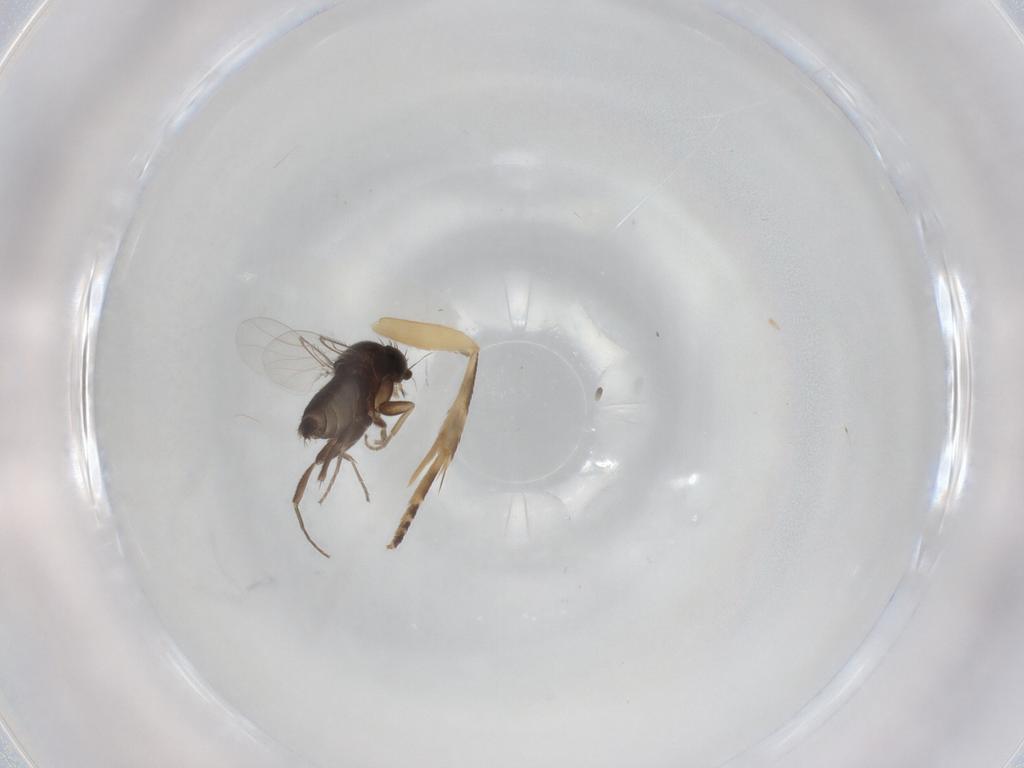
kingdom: Animalia
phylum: Arthropoda
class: Insecta
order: Diptera
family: Phoridae
